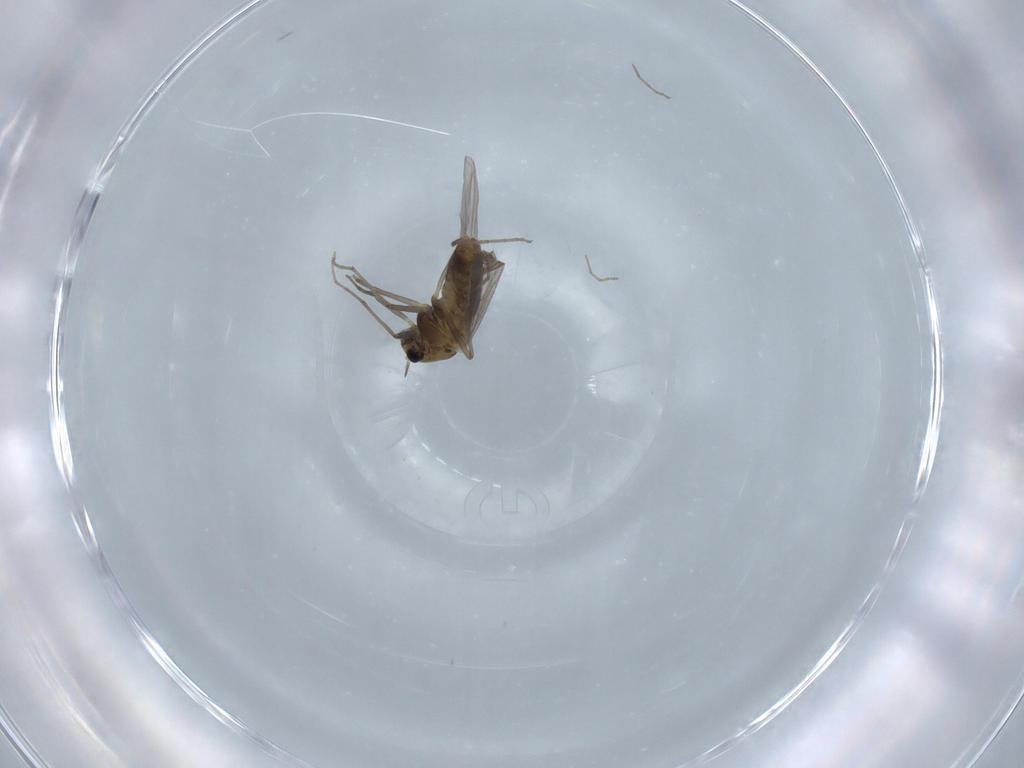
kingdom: Animalia
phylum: Arthropoda
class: Insecta
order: Diptera
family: Chironomidae
